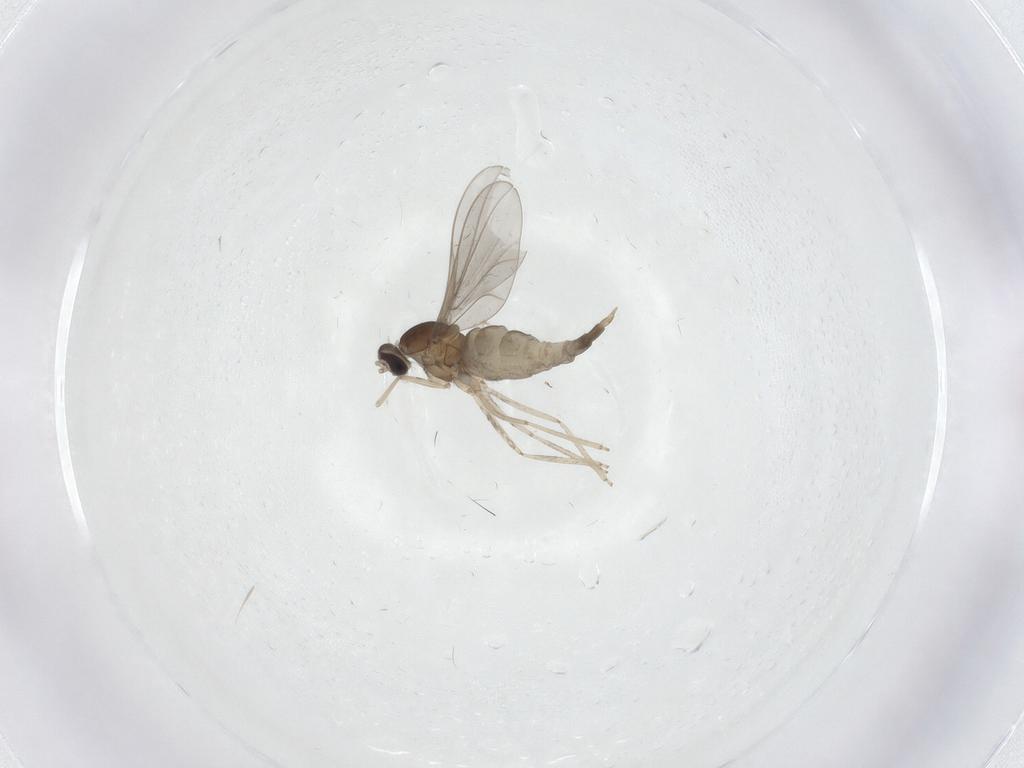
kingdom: Animalia
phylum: Arthropoda
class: Insecta
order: Diptera
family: Cecidomyiidae
